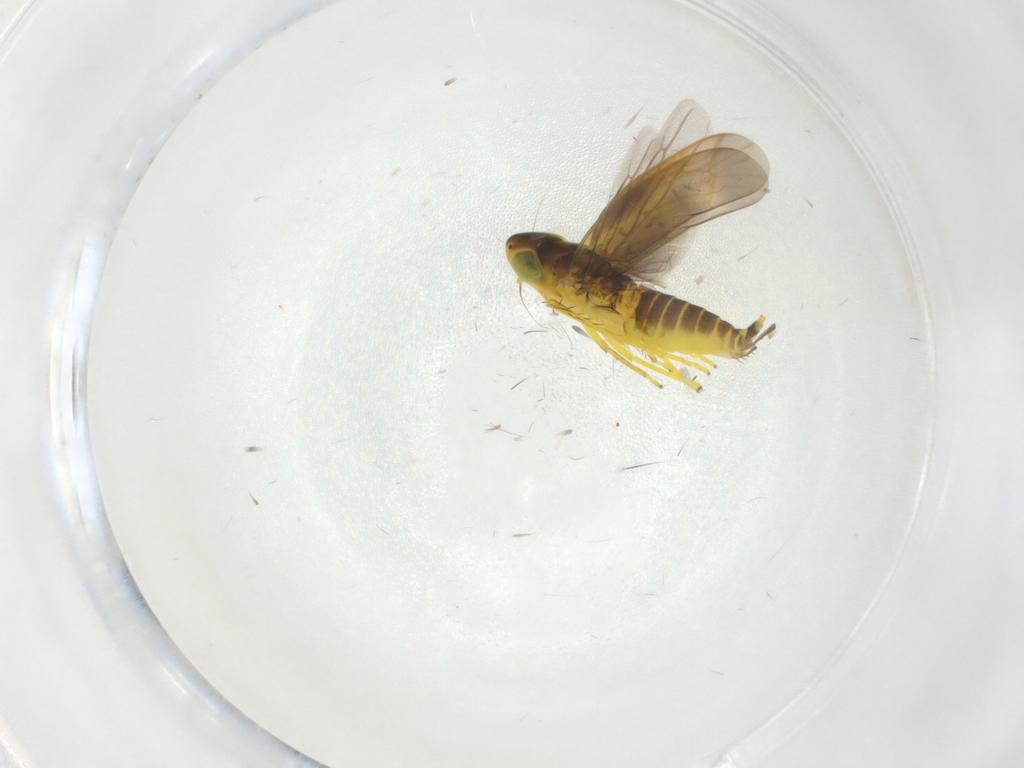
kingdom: Animalia
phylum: Arthropoda
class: Insecta
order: Hemiptera
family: Cicadellidae
